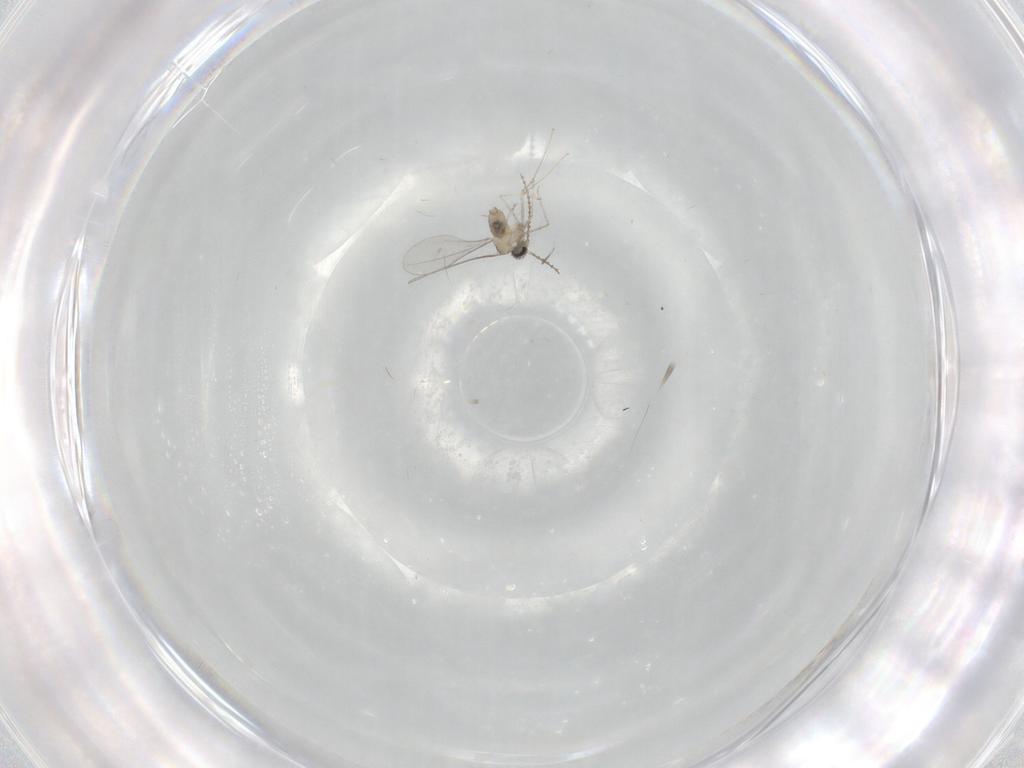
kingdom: Animalia
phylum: Arthropoda
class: Insecta
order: Diptera
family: Cecidomyiidae
